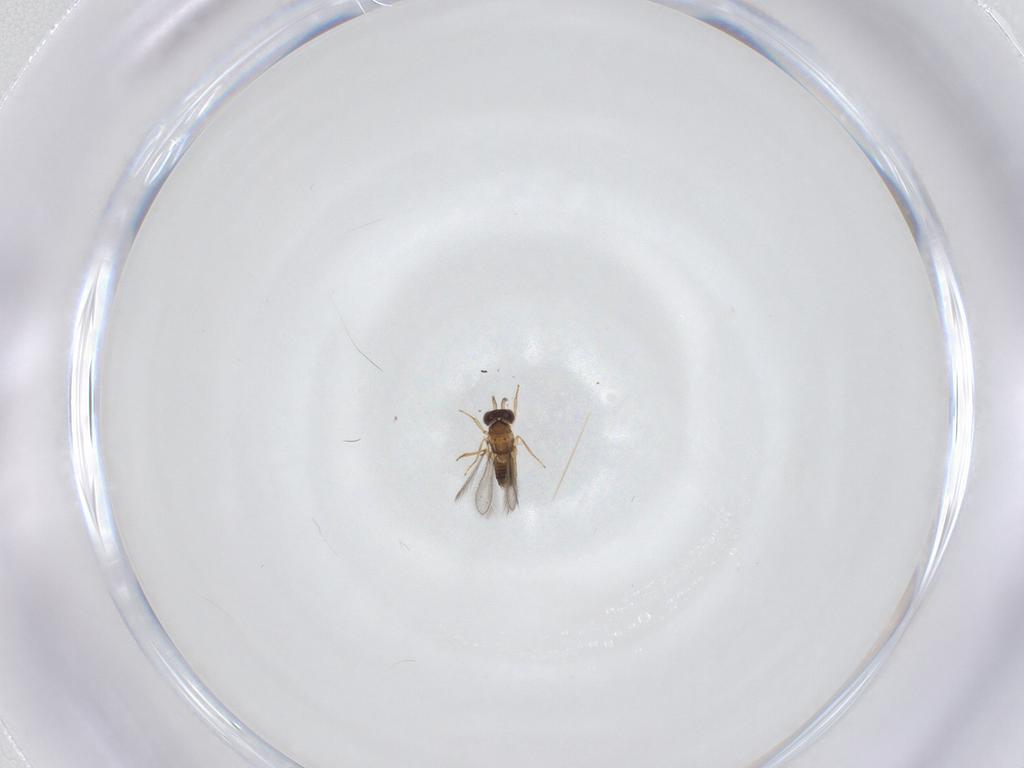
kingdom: Animalia
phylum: Arthropoda
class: Insecta
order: Hymenoptera
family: Mymaridae
